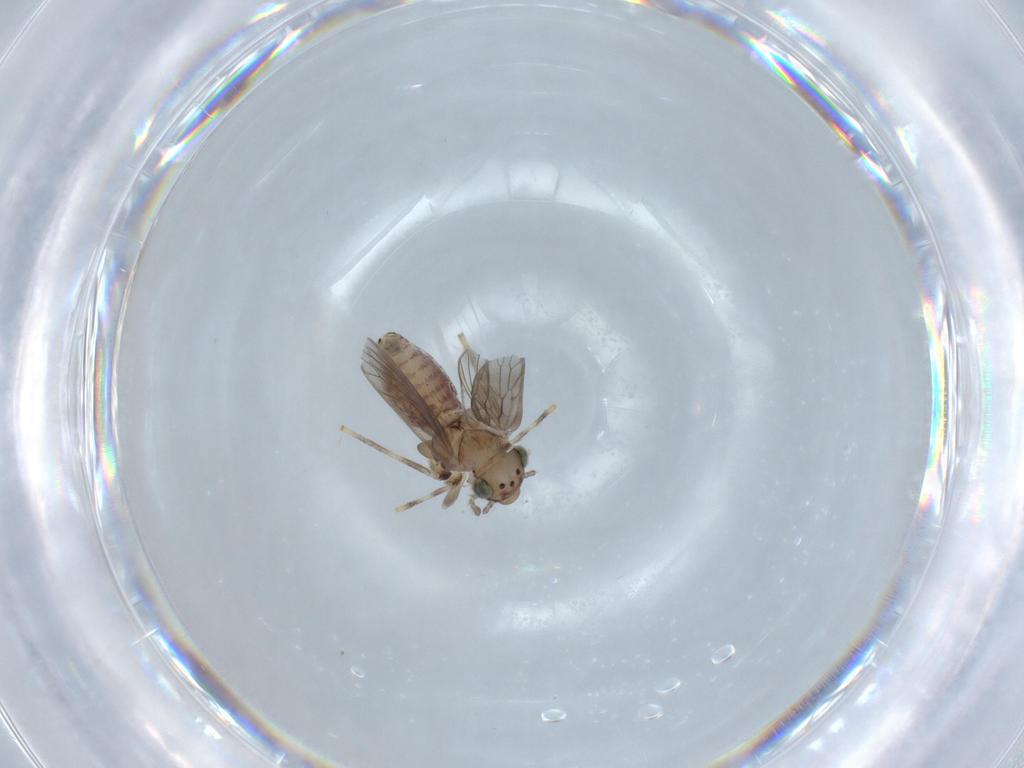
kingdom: Animalia
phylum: Arthropoda
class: Insecta
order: Psocodea
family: Lepidopsocidae
